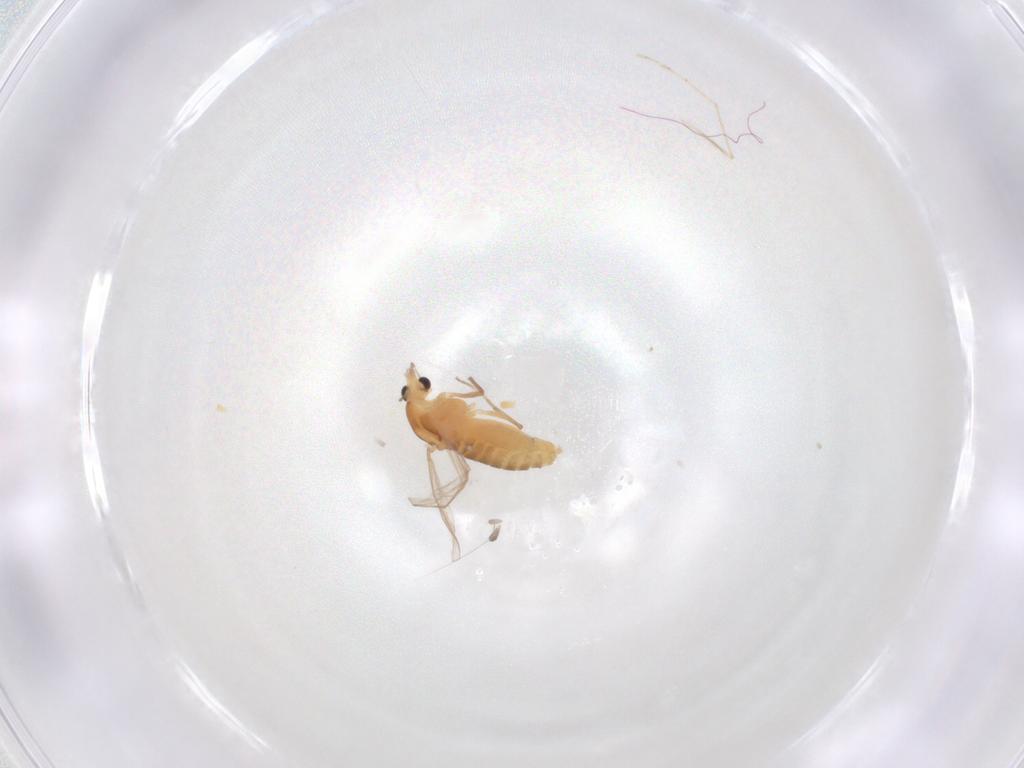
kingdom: Animalia
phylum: Arthropoda
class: Insecta
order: Diptera
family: Chironomidae
